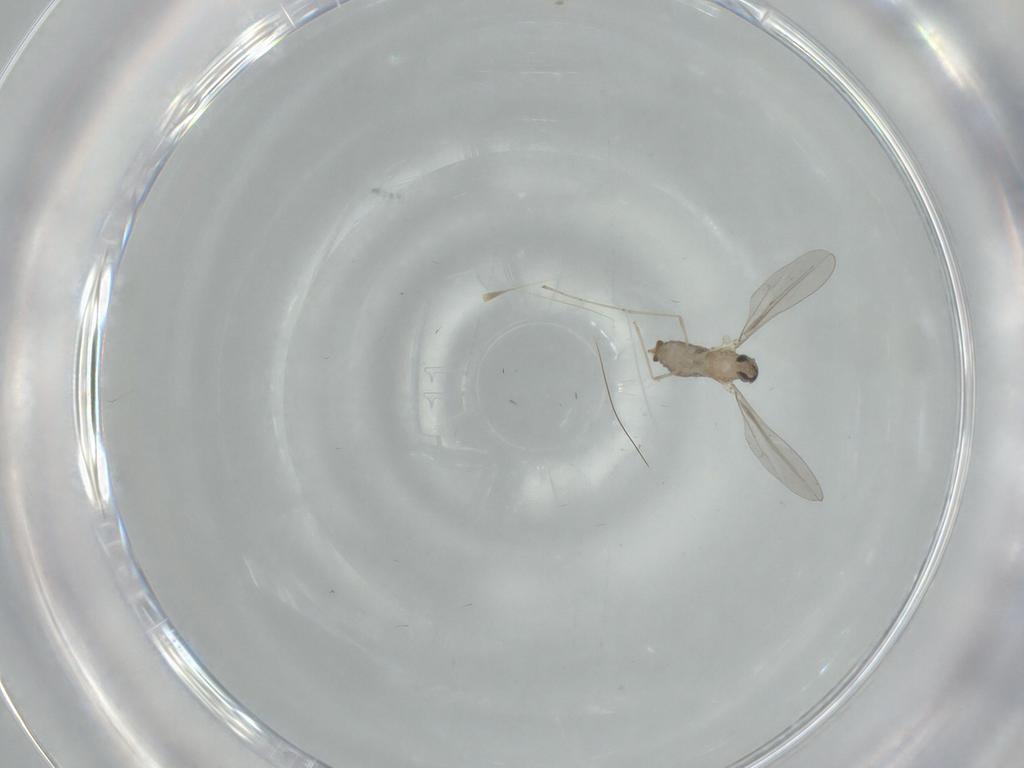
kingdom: Animalia
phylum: Arthropoda
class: Insecta
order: Diptera
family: Cecidomyiidae
